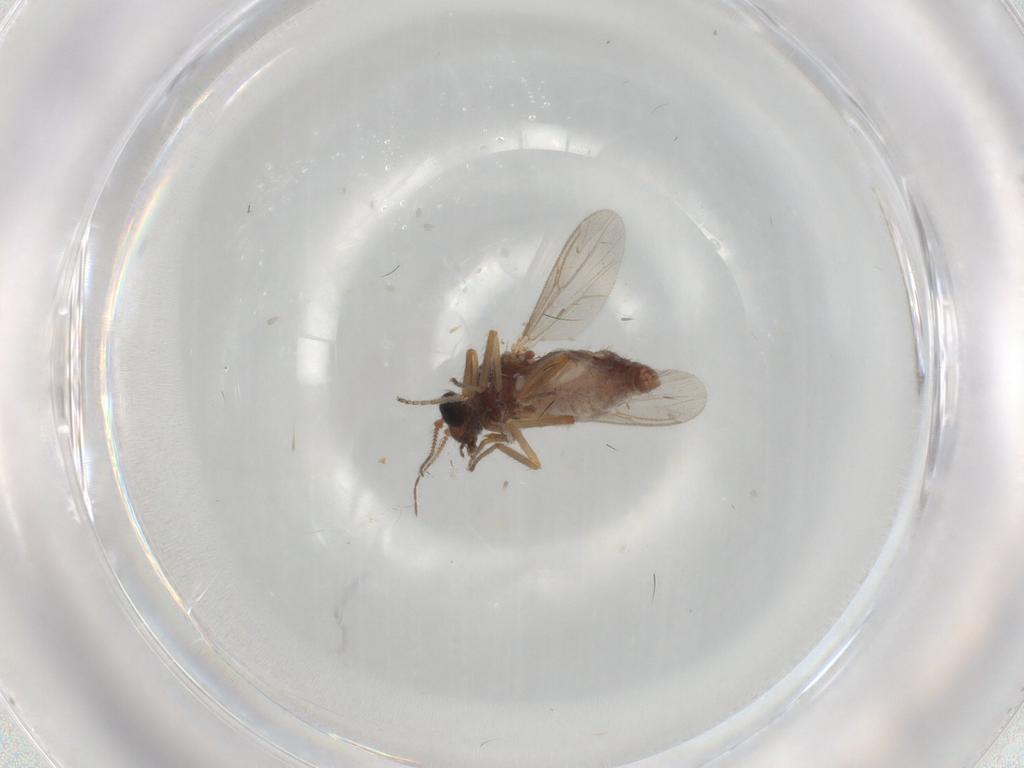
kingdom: Animalia
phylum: Arthropoda
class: Insecta
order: Diptera
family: Ceratopogonidae
